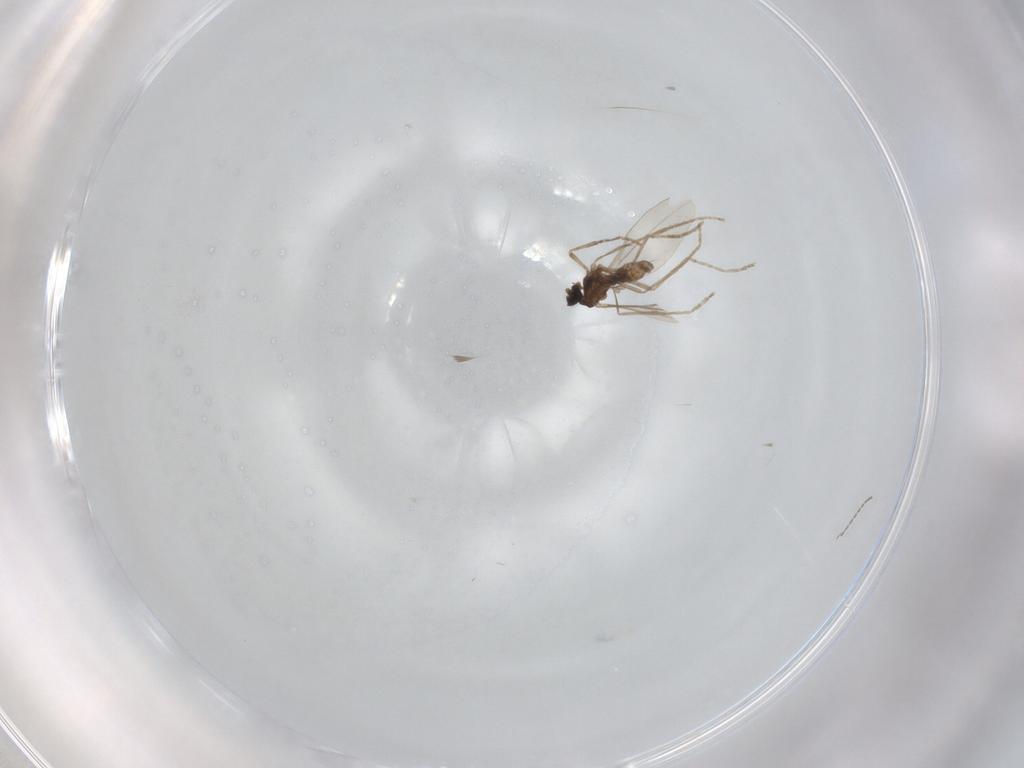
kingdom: Animalia
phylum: Arthropoda
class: Insecta
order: Diptera
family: Cecidomyiidae
